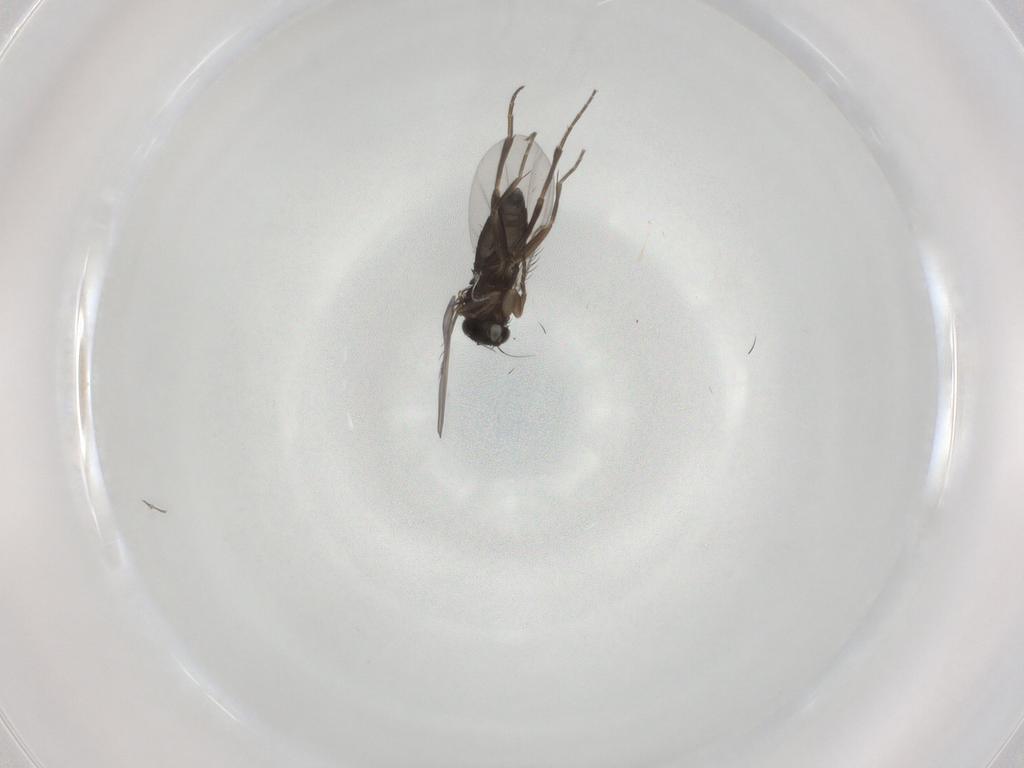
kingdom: Animalia
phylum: Arthropoda
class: Insecta
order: Diptera
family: Phoridae
